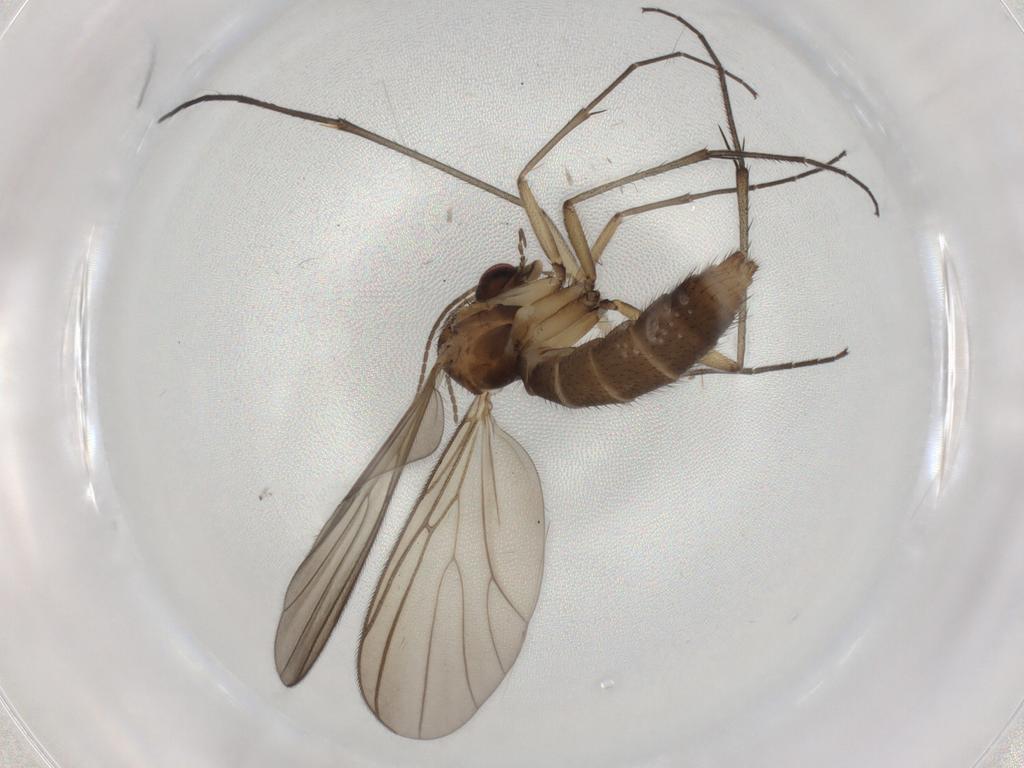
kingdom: Animalia
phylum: Arthropoda
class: Insecta
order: Diptera
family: Sciaridae
